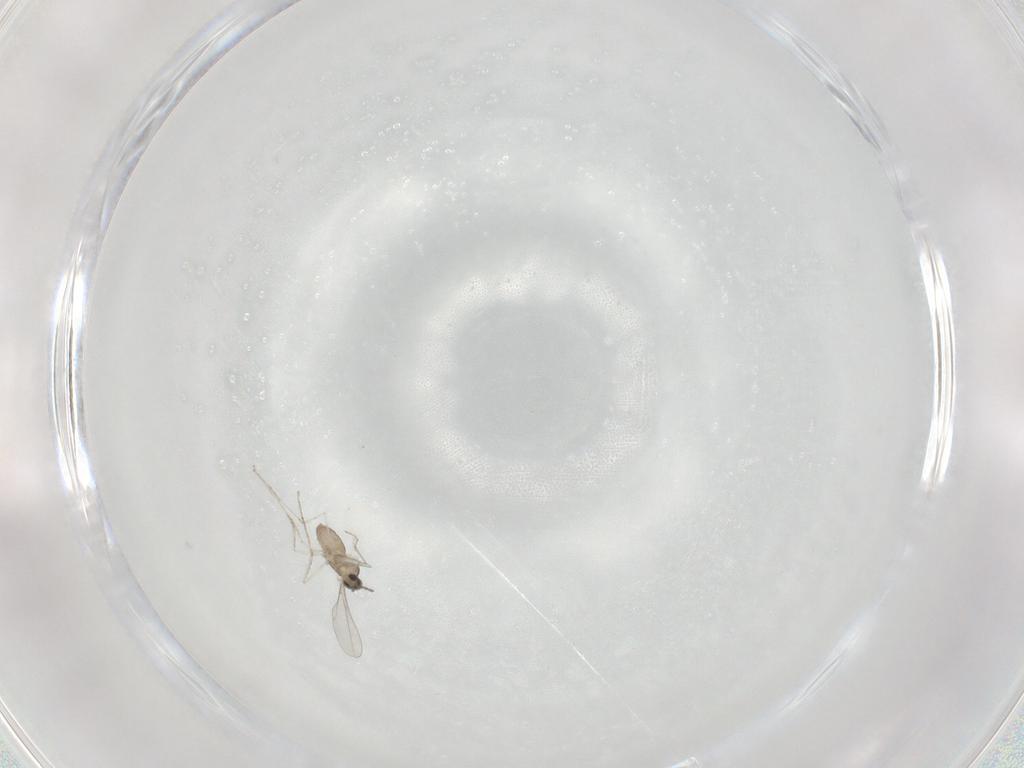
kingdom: Animalia
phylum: Arthropoda
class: Insecta
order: Diptera
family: Cecidomyiidae
